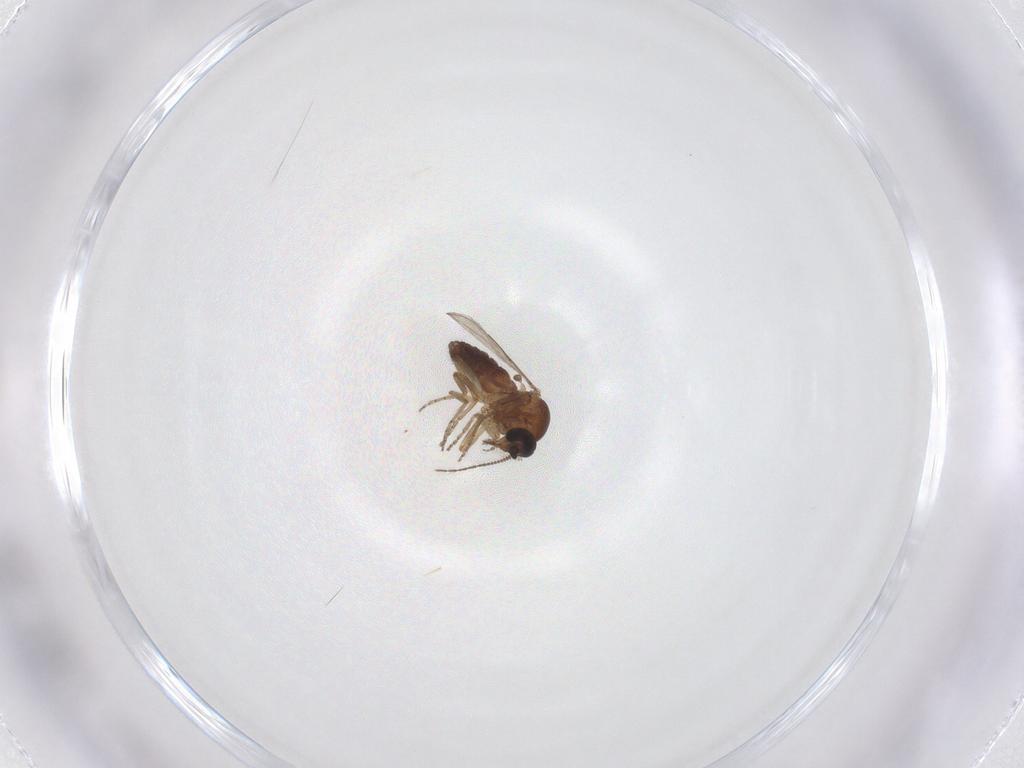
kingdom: Animalia
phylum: Arthropoda
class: Insecta
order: Diptera
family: Ceratopogonidae
